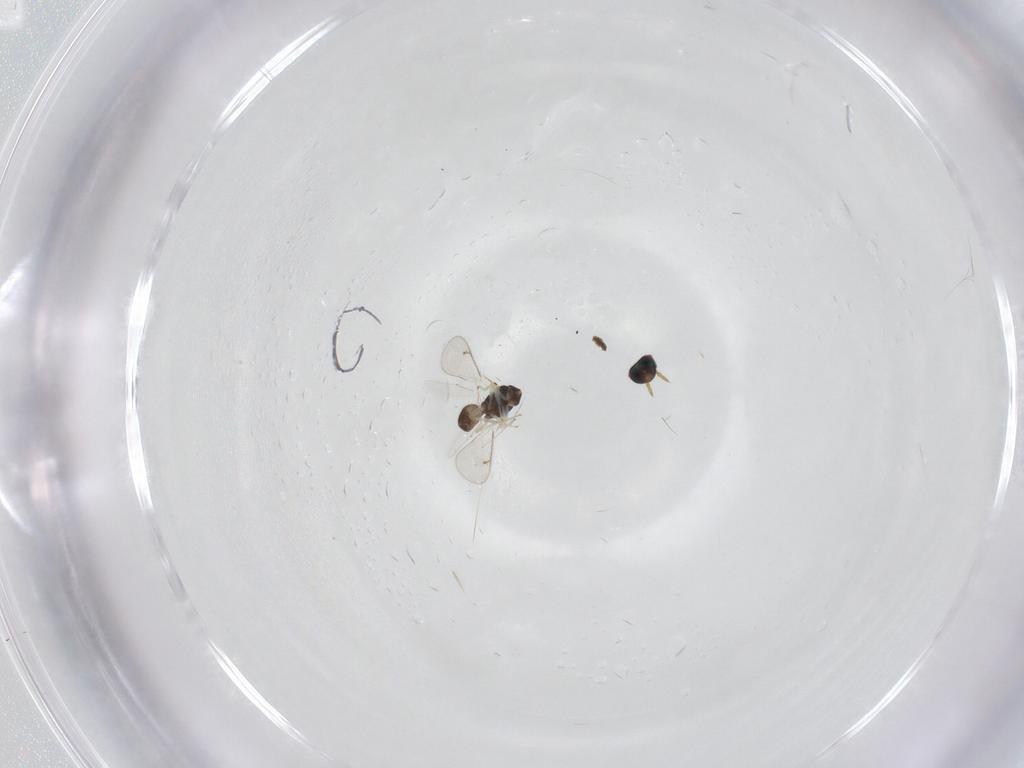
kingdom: Animalia
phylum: Arthropoda
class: Insecta
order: Hymenoptera
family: Eulophidae
